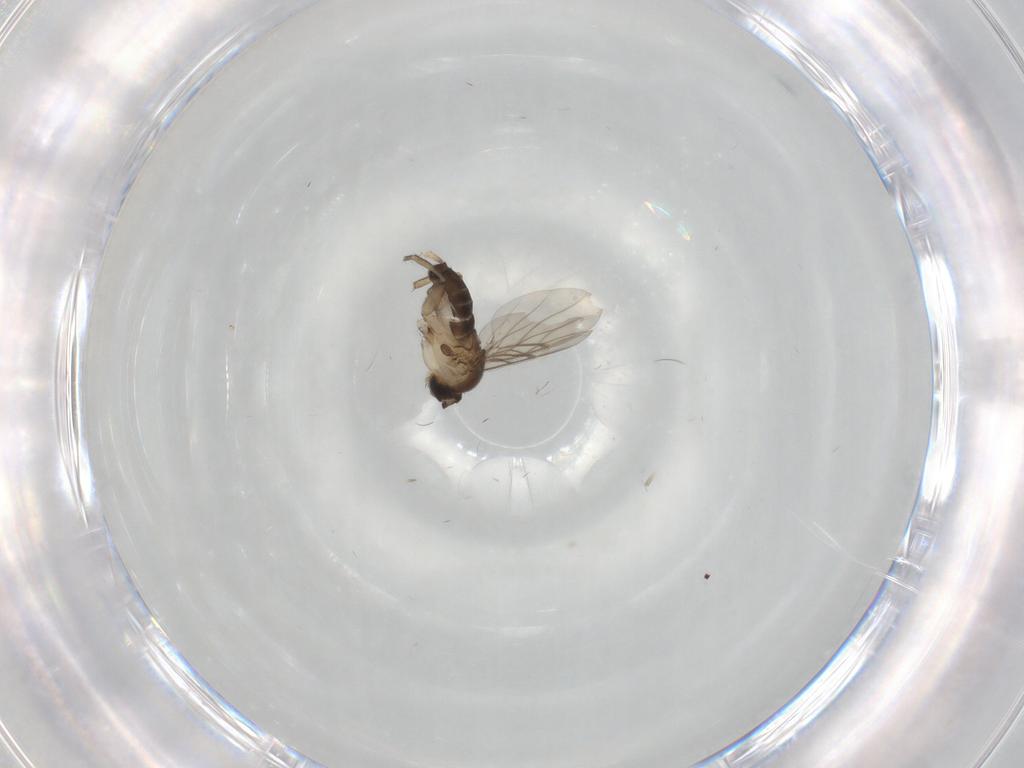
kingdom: Animalia
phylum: Arthropoda
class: Insecta
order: Diptera
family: Phoridae
